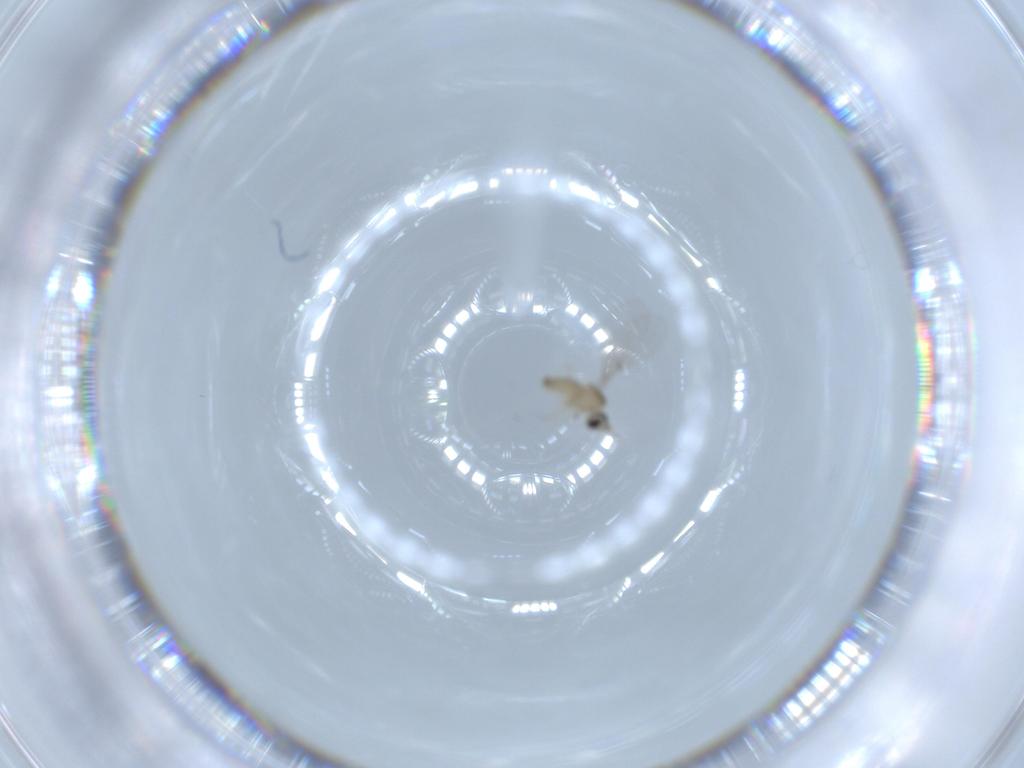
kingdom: Animalia
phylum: Arthropoda
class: Insecta
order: Diptera
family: Cecidomyiidae
